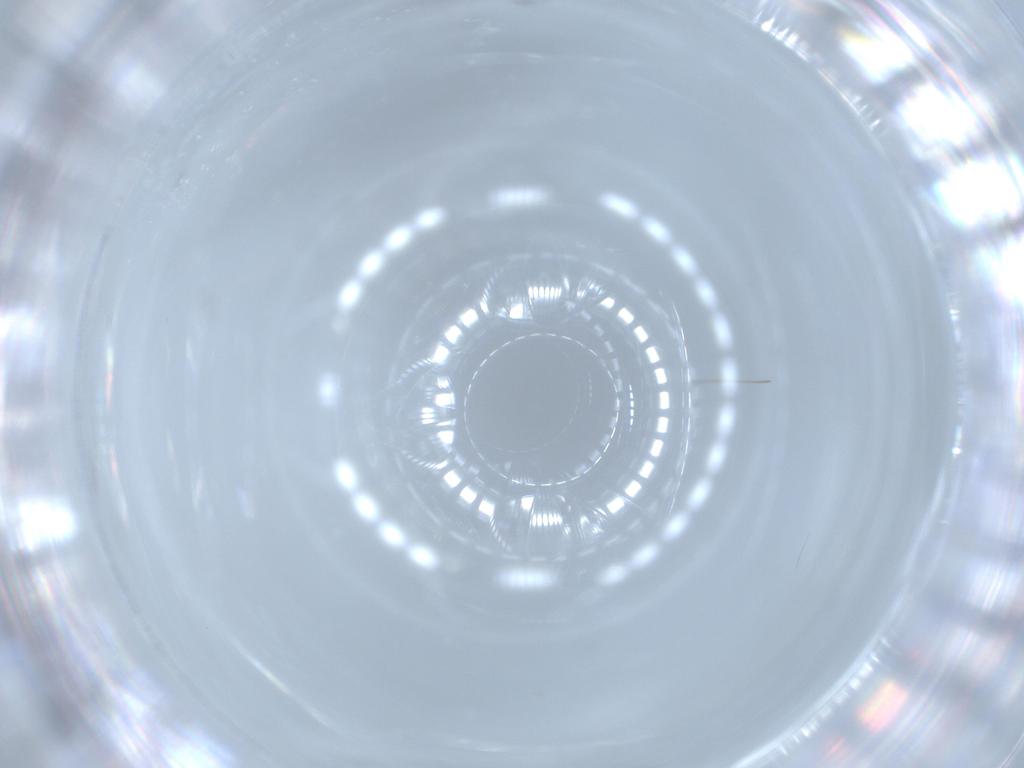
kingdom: Animalia
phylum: Arthropoda
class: Insecta
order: Diptera
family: Cecidomyiidae
